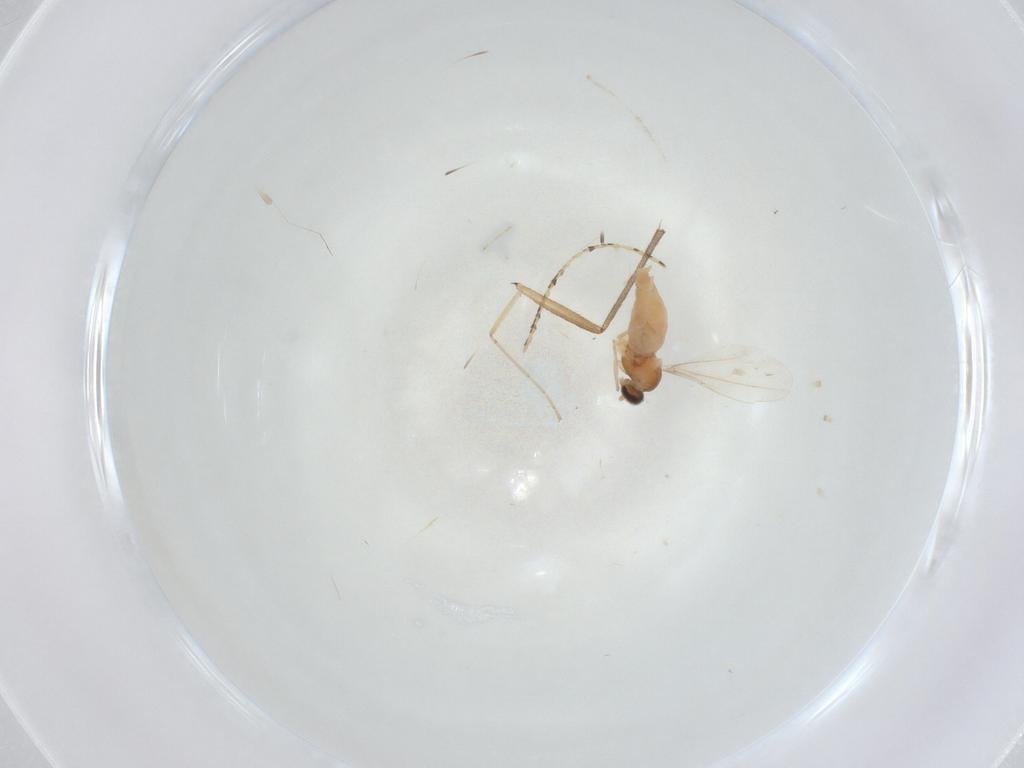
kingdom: Animalia
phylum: Arthropoda
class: Insecta
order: Diptera
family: Cecidomyiidae
